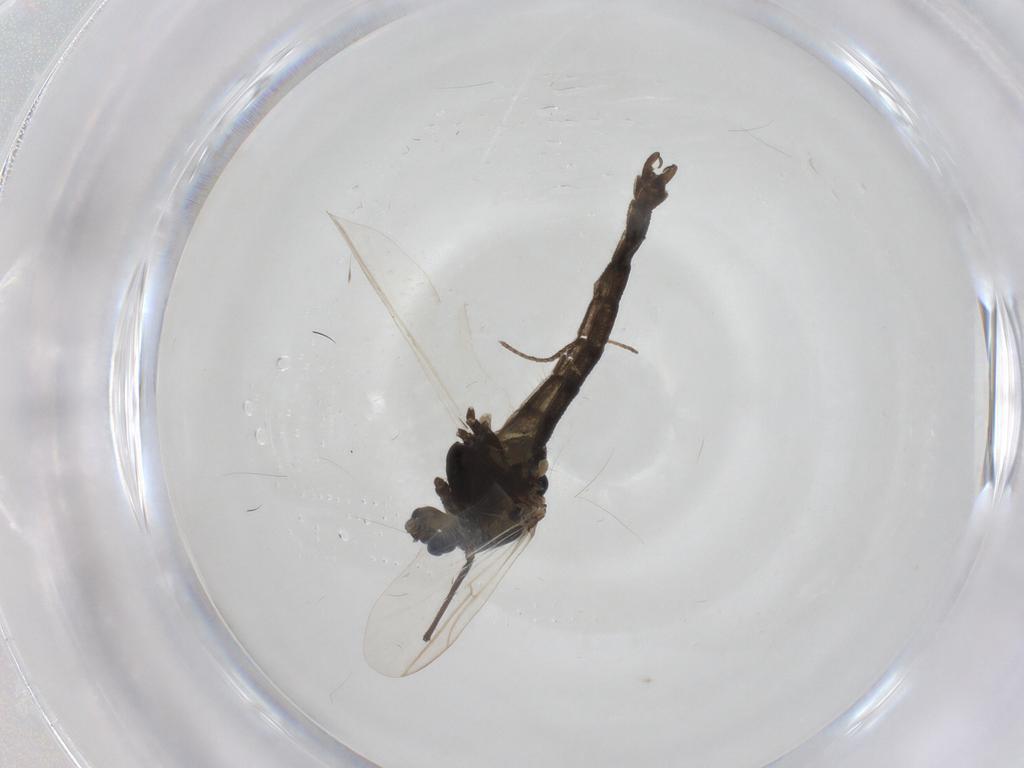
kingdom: Animalia
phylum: Arthropoda
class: Insecta
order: Diptera
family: Chironomidae
